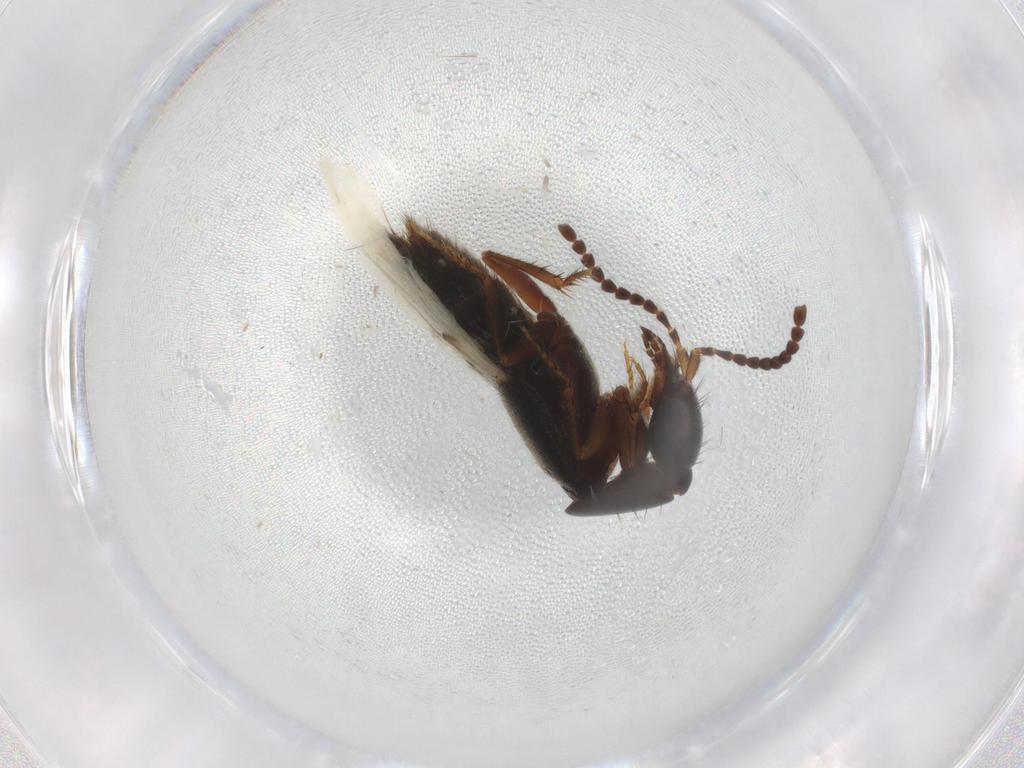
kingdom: Animalia
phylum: Arthropoda
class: Insecta
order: Coleoptera
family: Staphylinidae
